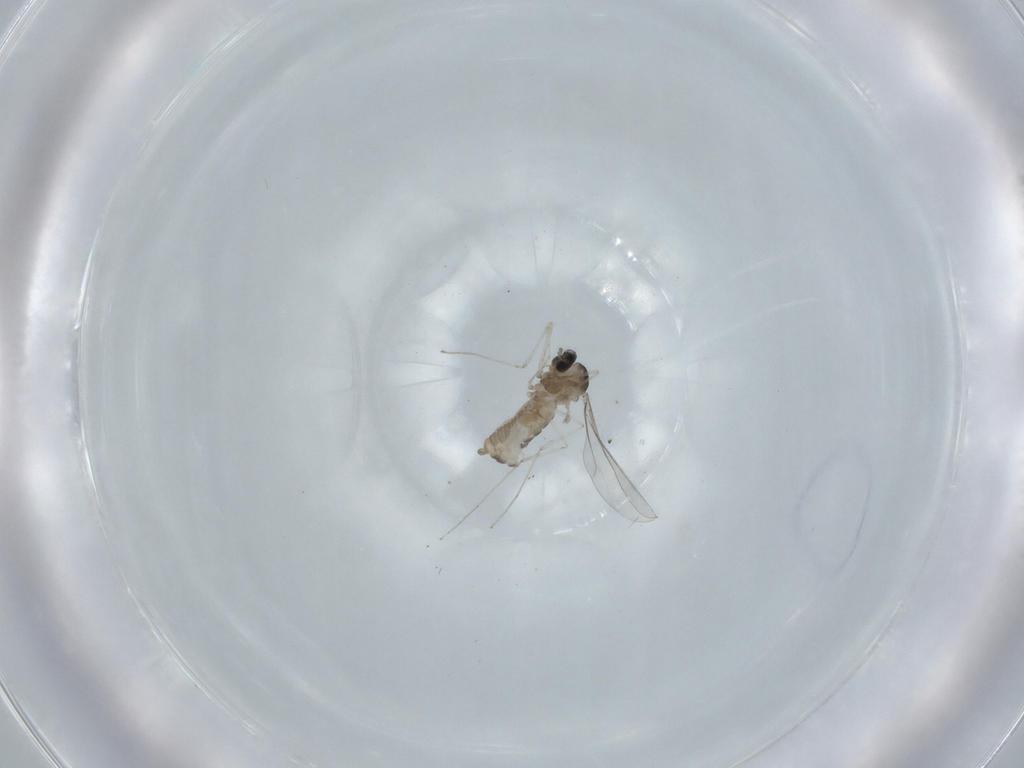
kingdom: Animalia
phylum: Arthropoda
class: Insecta
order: Diptera
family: Cecidomyiidae
